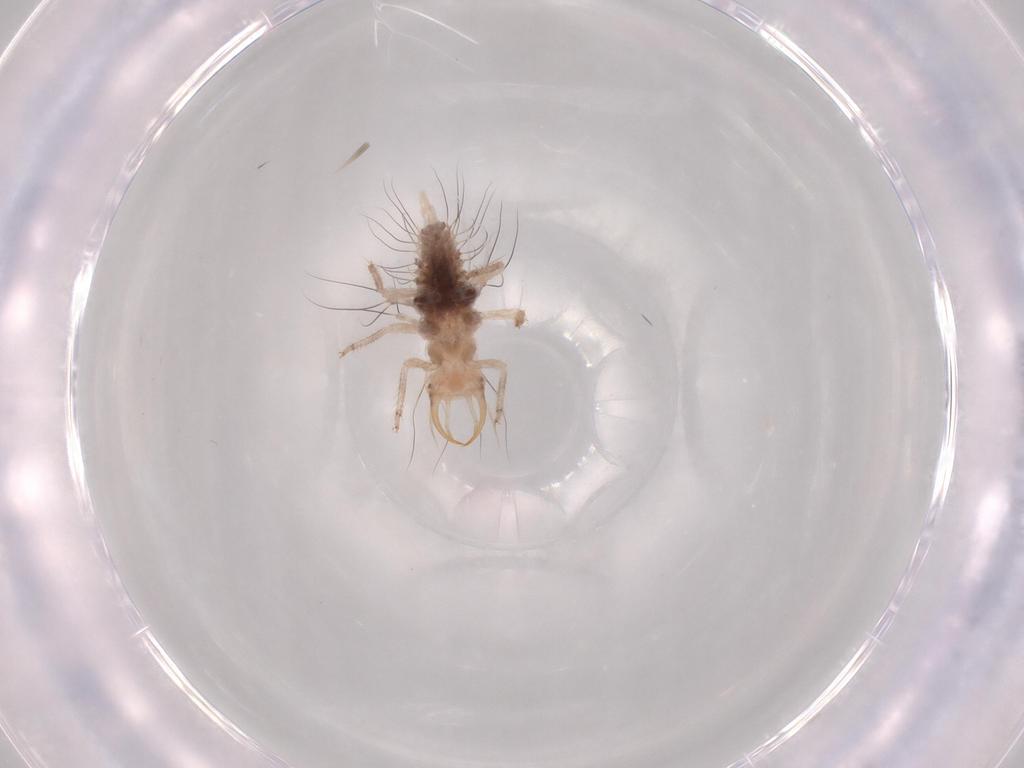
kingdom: Animalia
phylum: Arthropoda
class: Insecta
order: Neuroptera
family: Chrysopidae
